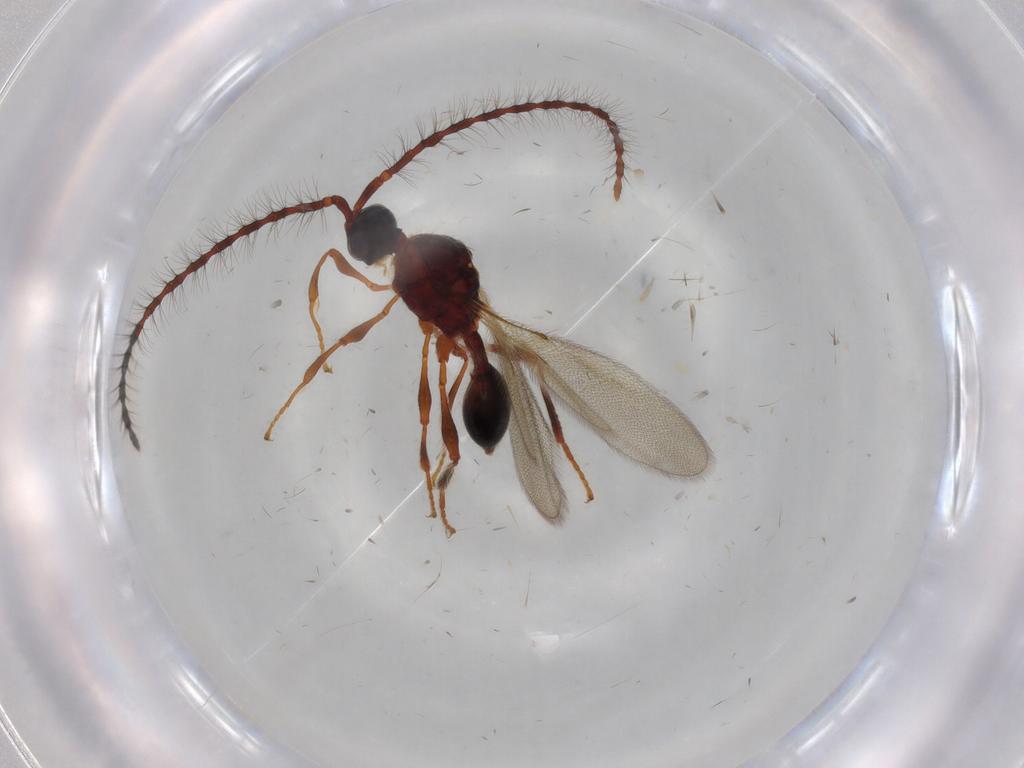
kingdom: Animalia
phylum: Arthropoda
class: Insecta
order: Hymenoptera
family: Diapriidae
